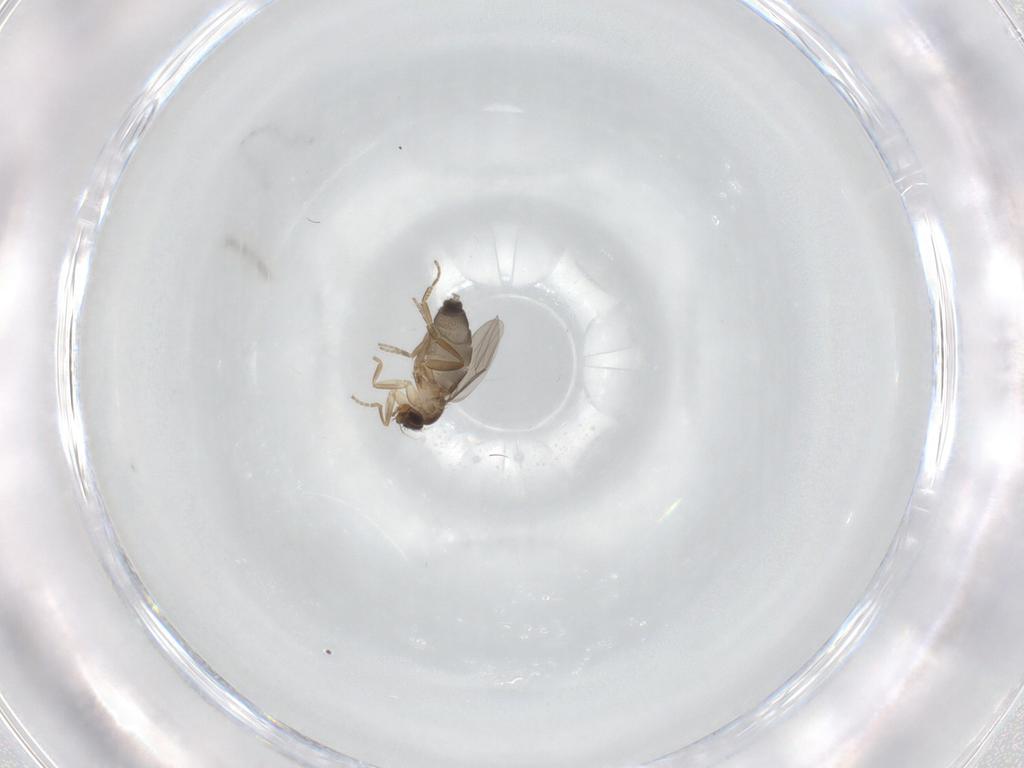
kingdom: Animalia
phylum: Arthropoda
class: Insecta
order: Diptera
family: Phoridae
